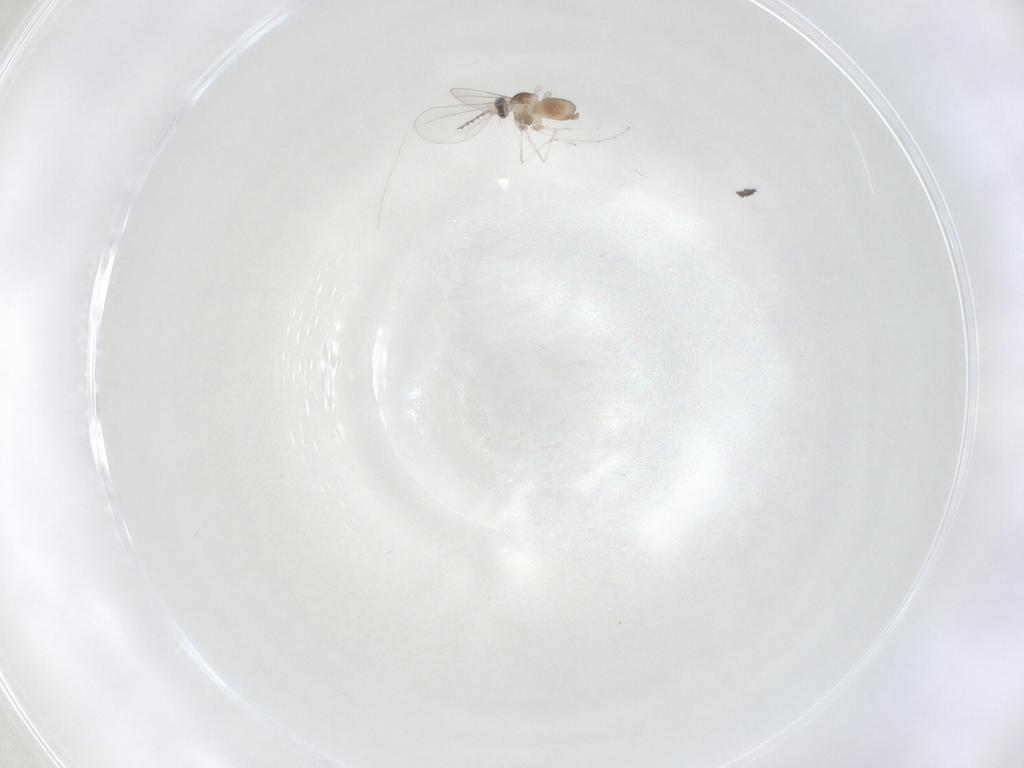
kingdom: Animalia
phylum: Arthropoda
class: Insecta
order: Diptera
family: Cecidomyiidae
